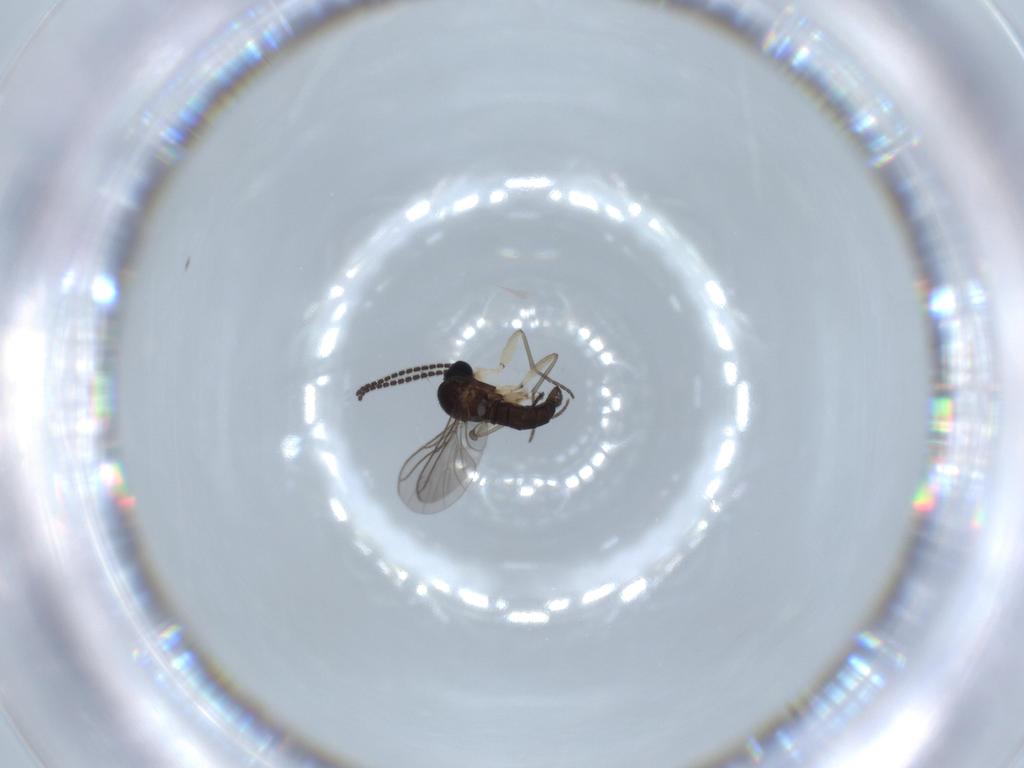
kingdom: Animalia
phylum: Arthropoda
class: Insecta
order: Diptera
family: Sciaridae
